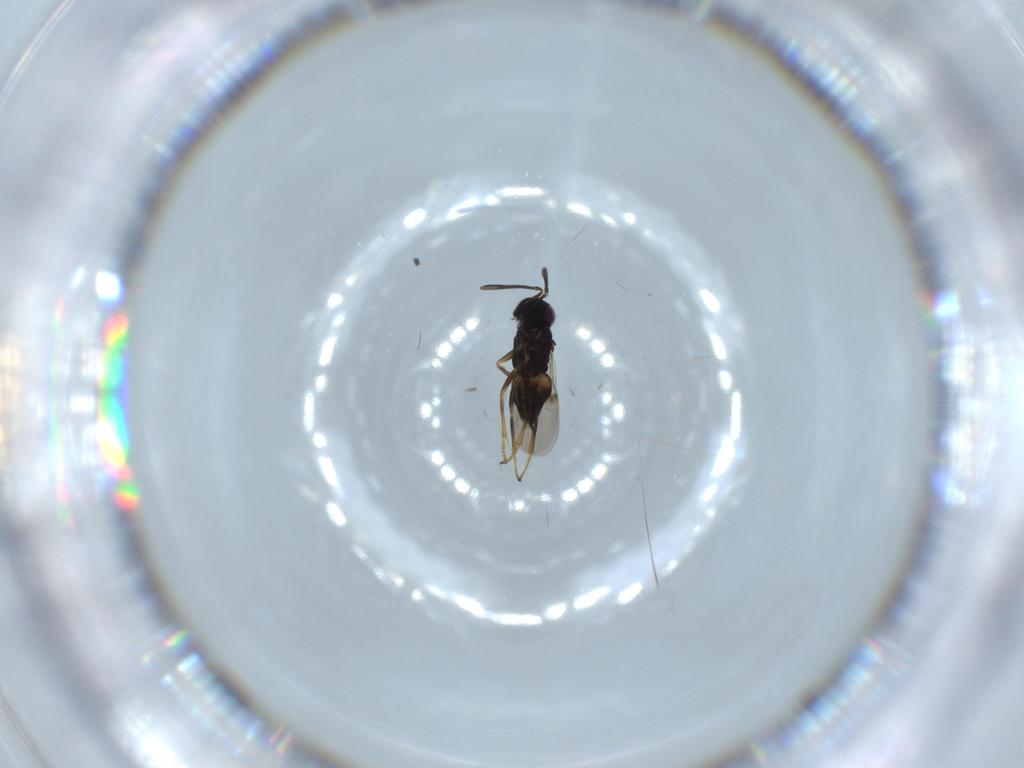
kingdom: Animalia
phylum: Arthropoda
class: Insecta
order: Hymenoptera
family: Encyrtidae
